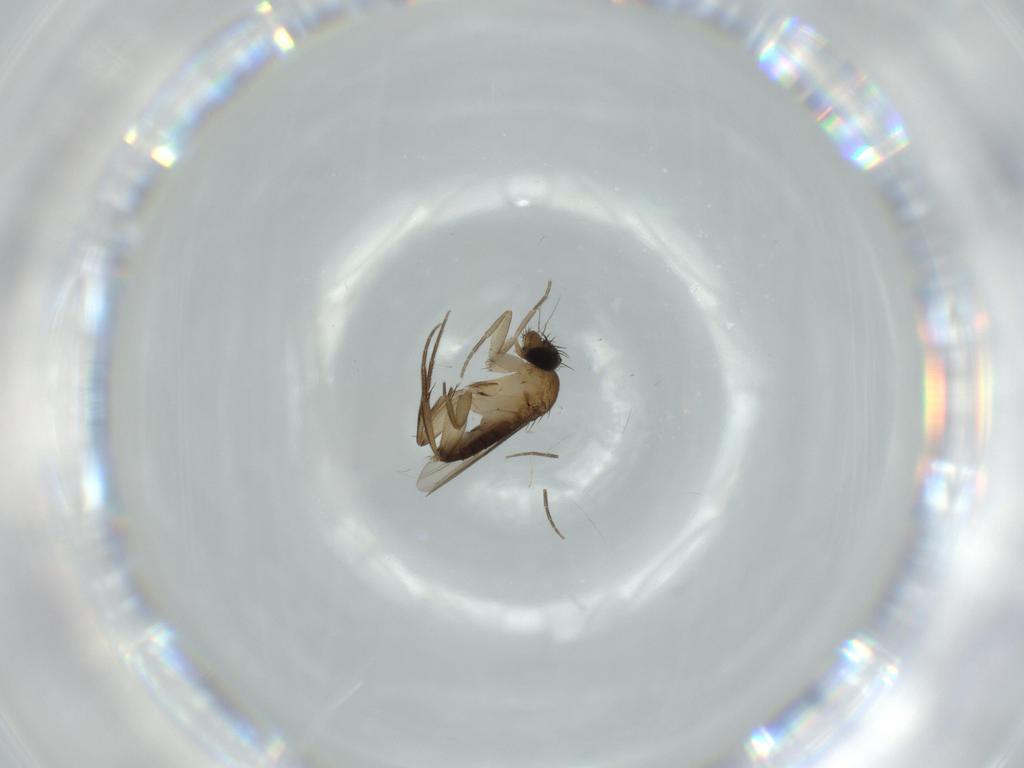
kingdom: Animalia
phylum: Arthropoda
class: Insecta
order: Diptera
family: Phoridae
